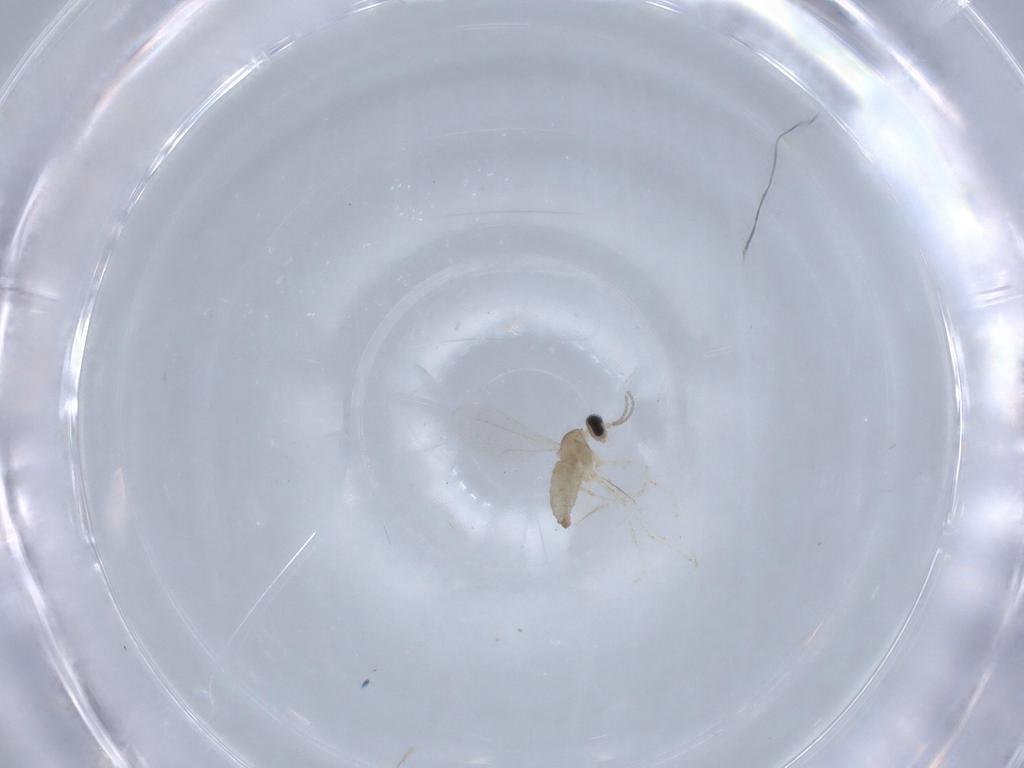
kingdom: Animalia
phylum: Arthropoda
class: Insecta
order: Diptera
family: Cecidomyiidae
